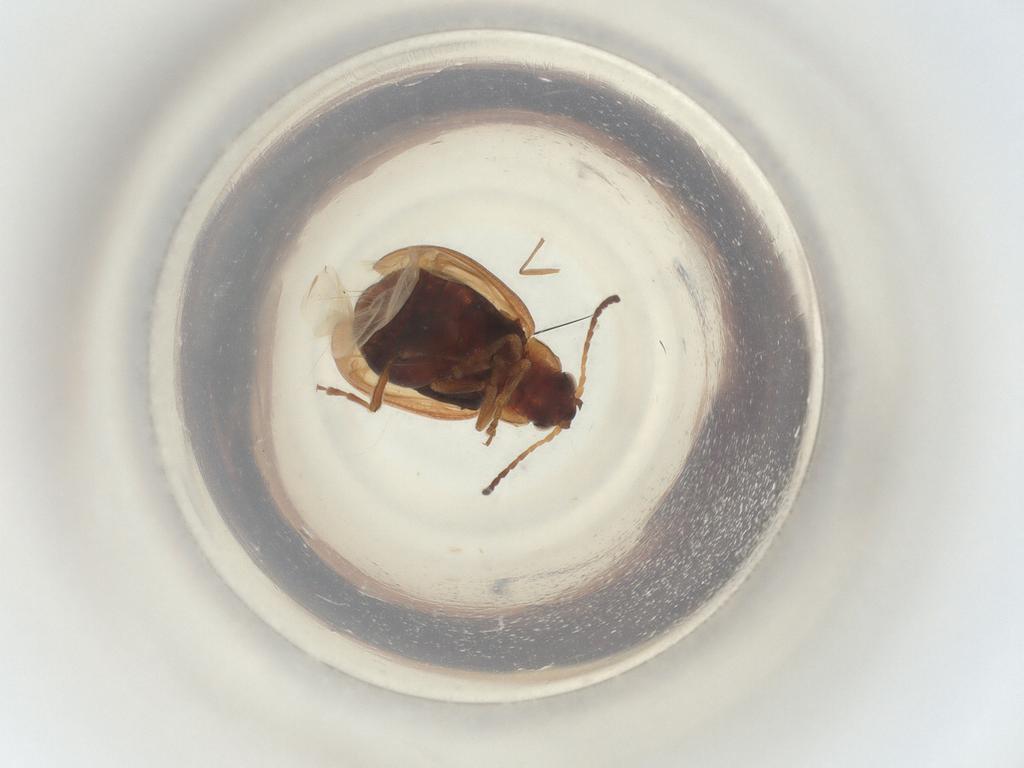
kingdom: Animalia
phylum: Arthropoda
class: Insecta
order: Coleoptera
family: Chrysomelidae
